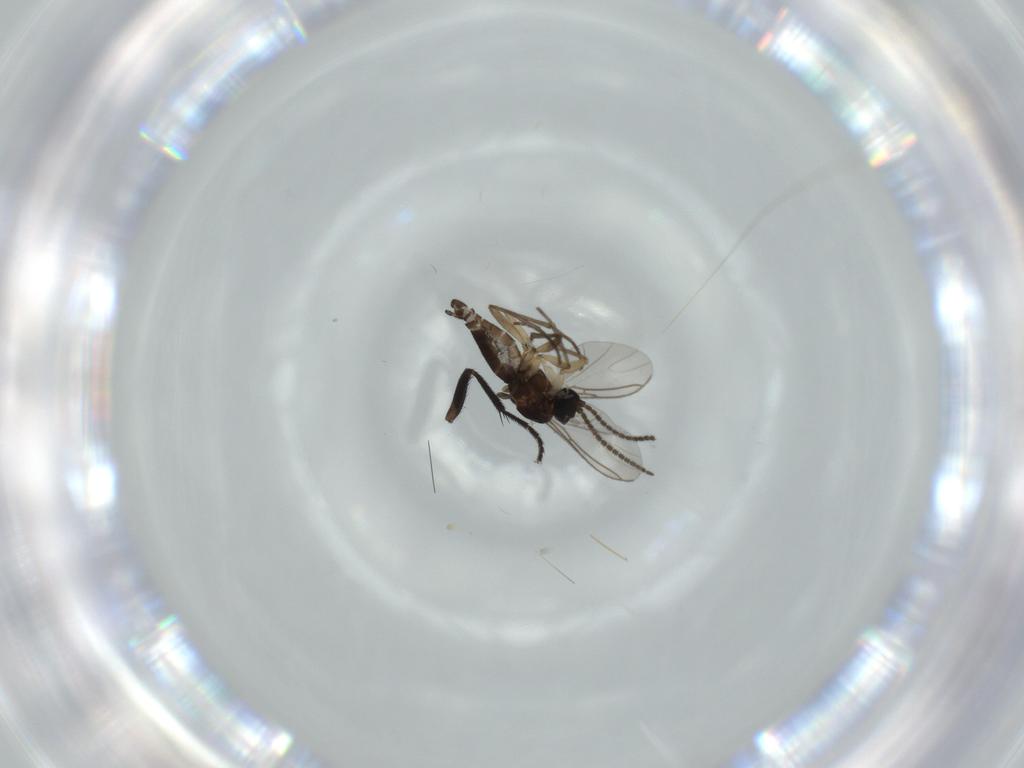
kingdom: Animalia
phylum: Arthropoda
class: Insecta
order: Diptera
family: Sciaridae
